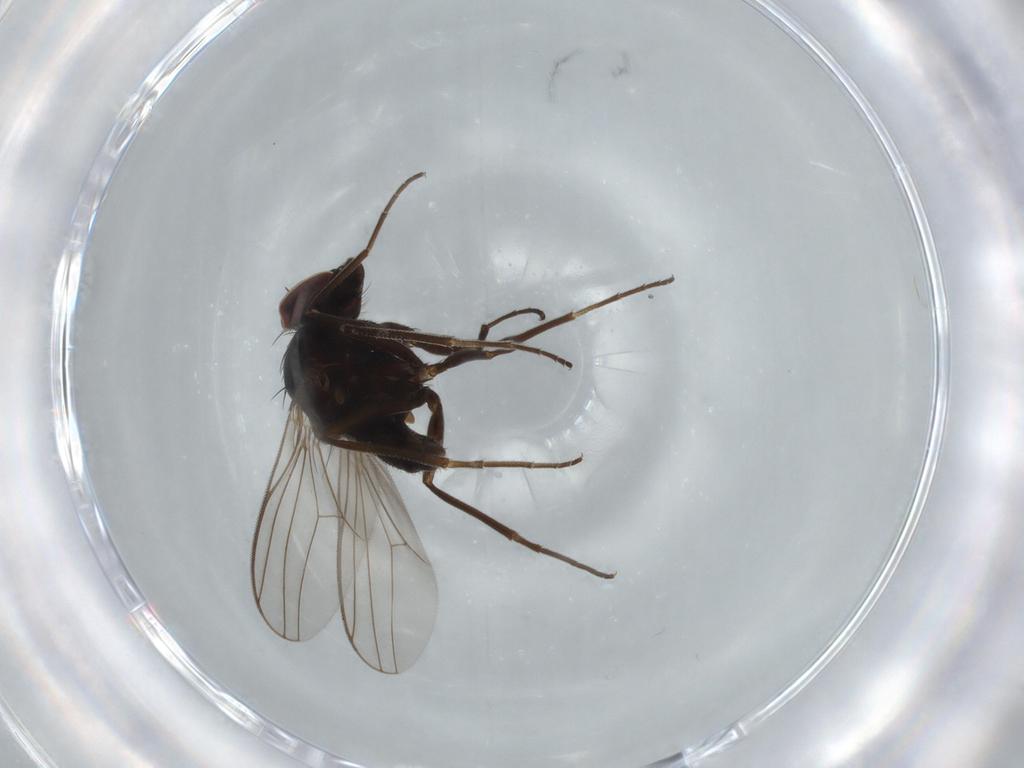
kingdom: Animalia
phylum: Arthropoda
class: Insecta
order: Diptera
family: Dolichopodidae
